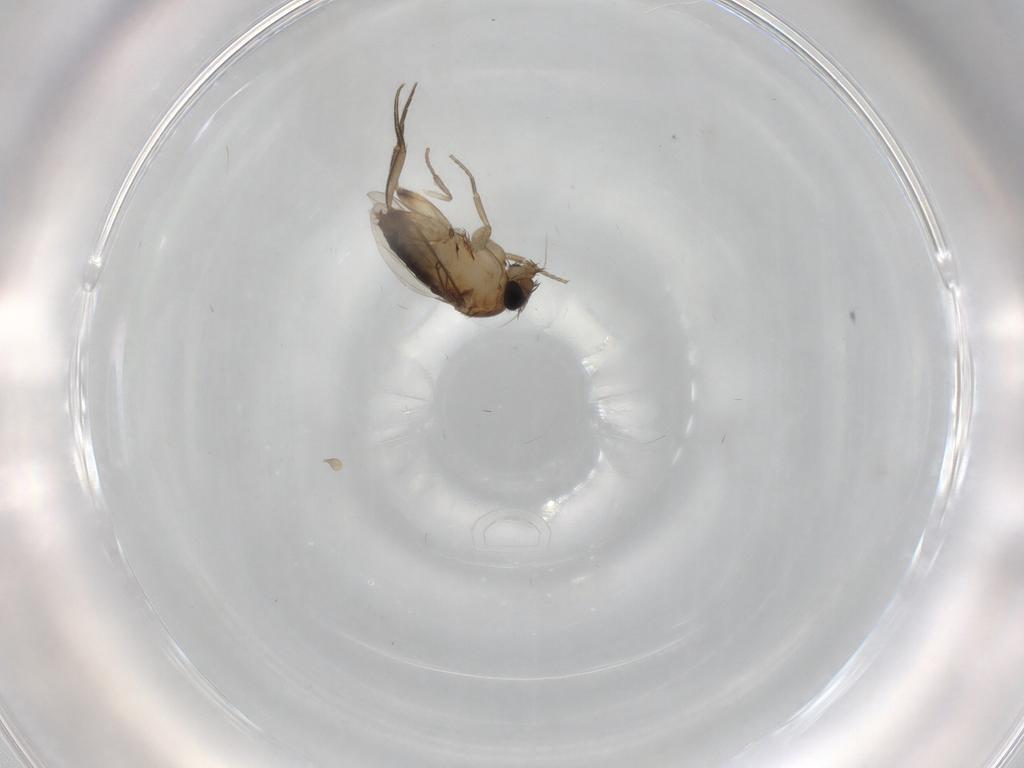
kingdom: Animalia
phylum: Arthropoda
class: Insecta
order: Diptera
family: Phoridae
